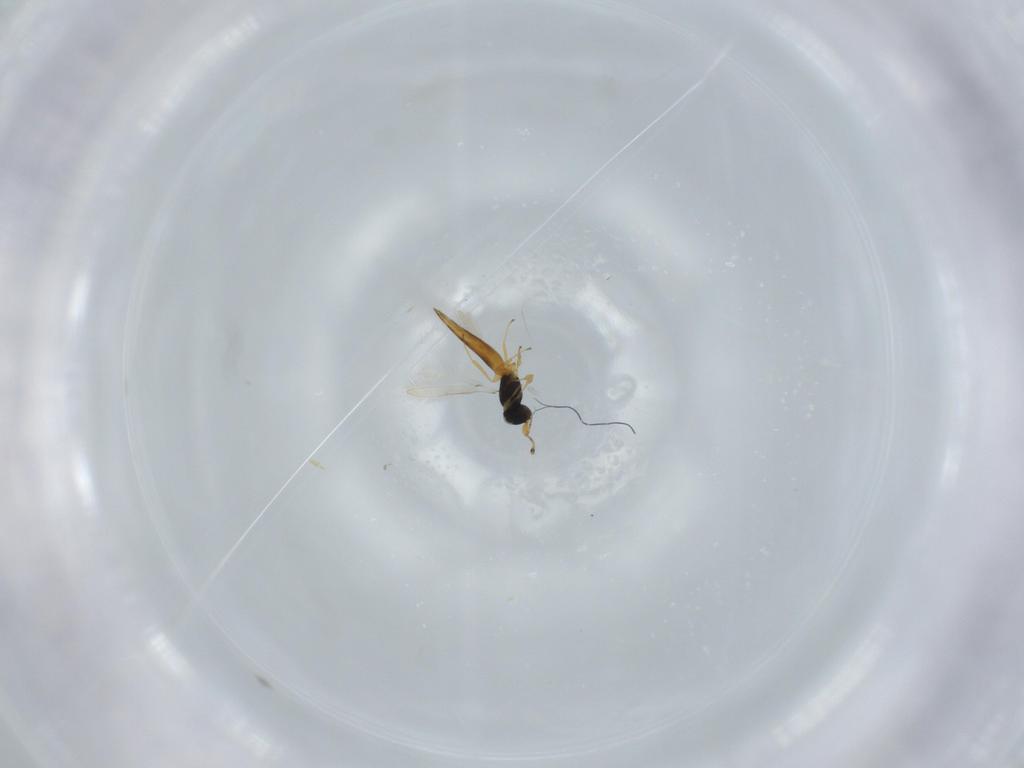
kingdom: Animalia
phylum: Arthropoda
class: Insecta
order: Hymenoptera
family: Scelionidae
